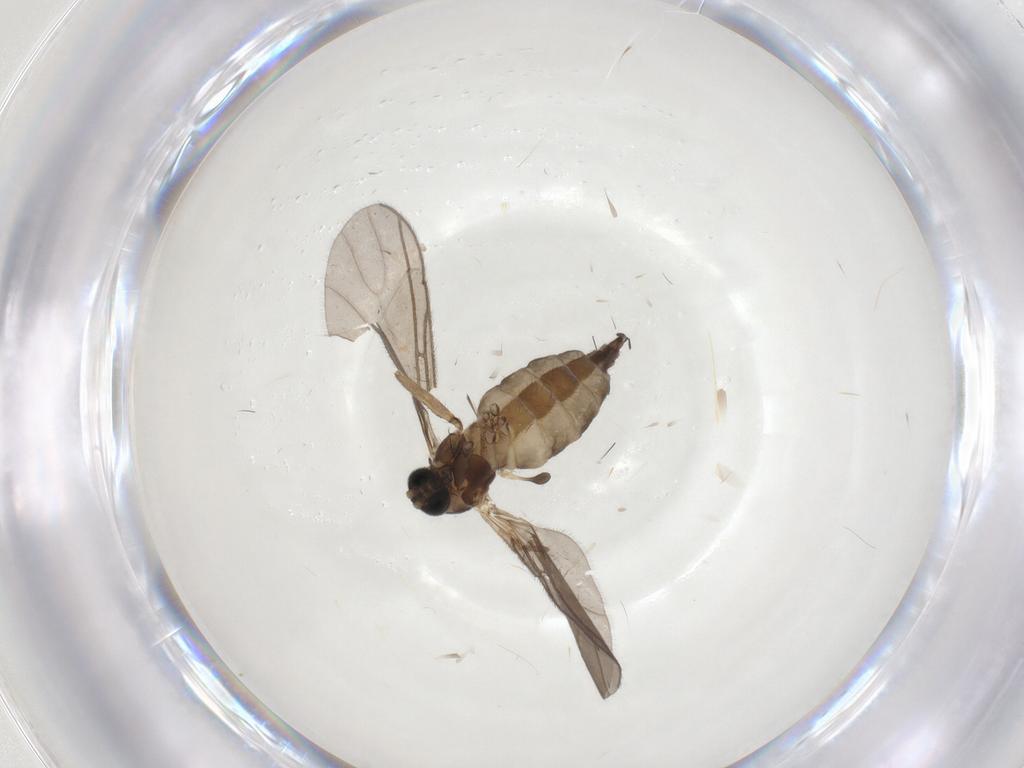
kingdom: Animalia
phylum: Arthropoda
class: Insecta
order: Diptera
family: Sciaridae
